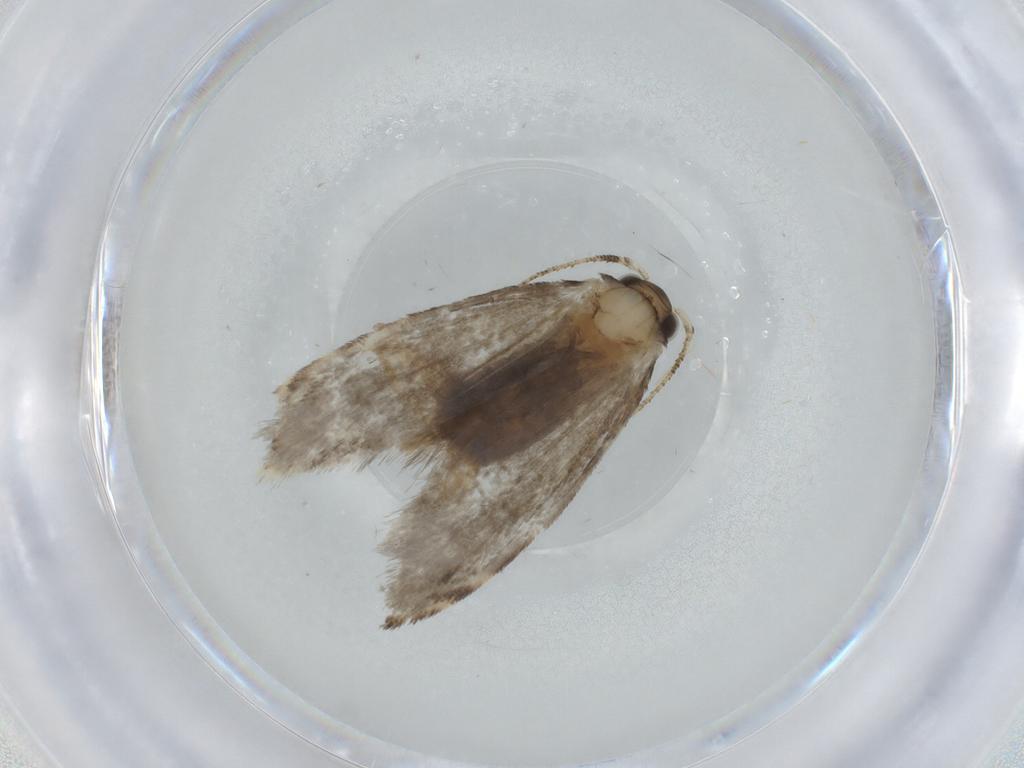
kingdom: Animalia
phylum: Arthropoda
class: Insecta
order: Lepidoptera
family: Tineidae
